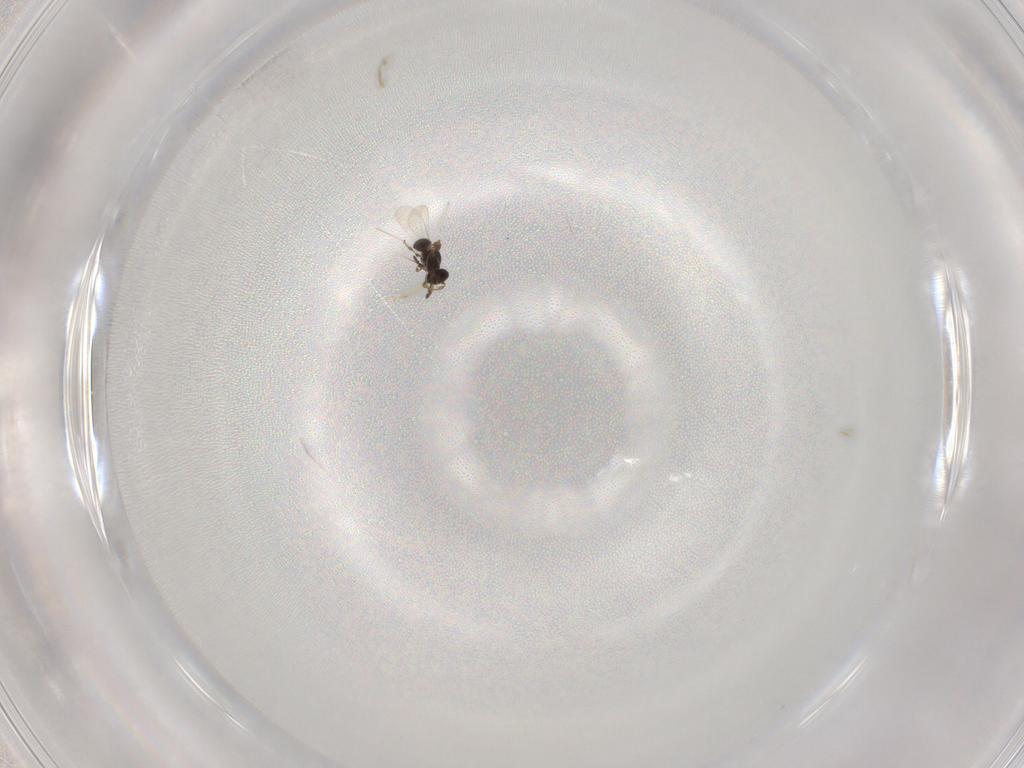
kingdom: Animalia
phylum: Arthropoda
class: Insecta
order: Hymenoptera
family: Platygastridae
